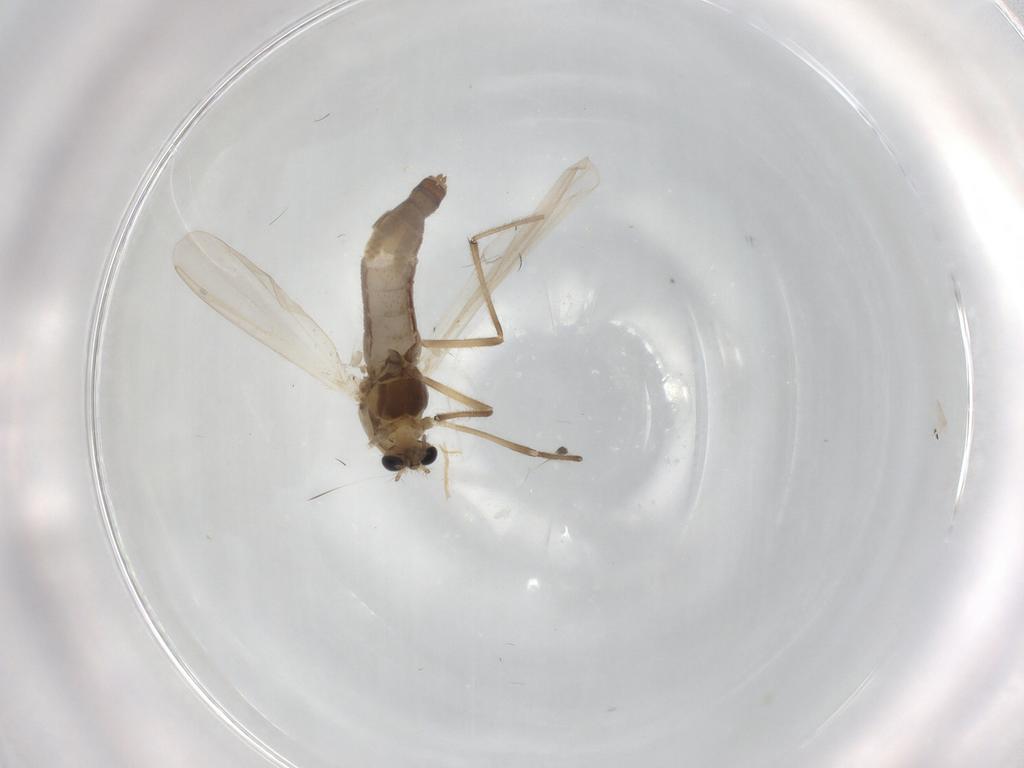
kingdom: Animalia
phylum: Arthropoda
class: Insecta
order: Diptera
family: Chironomidae
